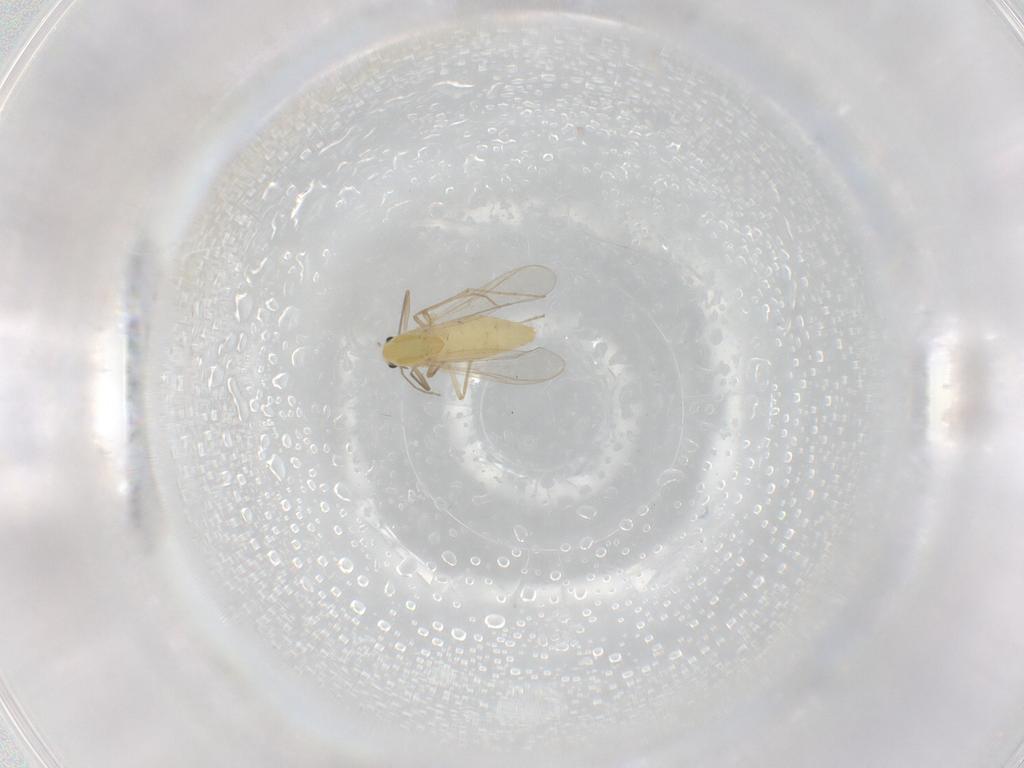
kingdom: Animalia
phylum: Arthropoda
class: Insecta
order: Diptera
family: Chironomidae
